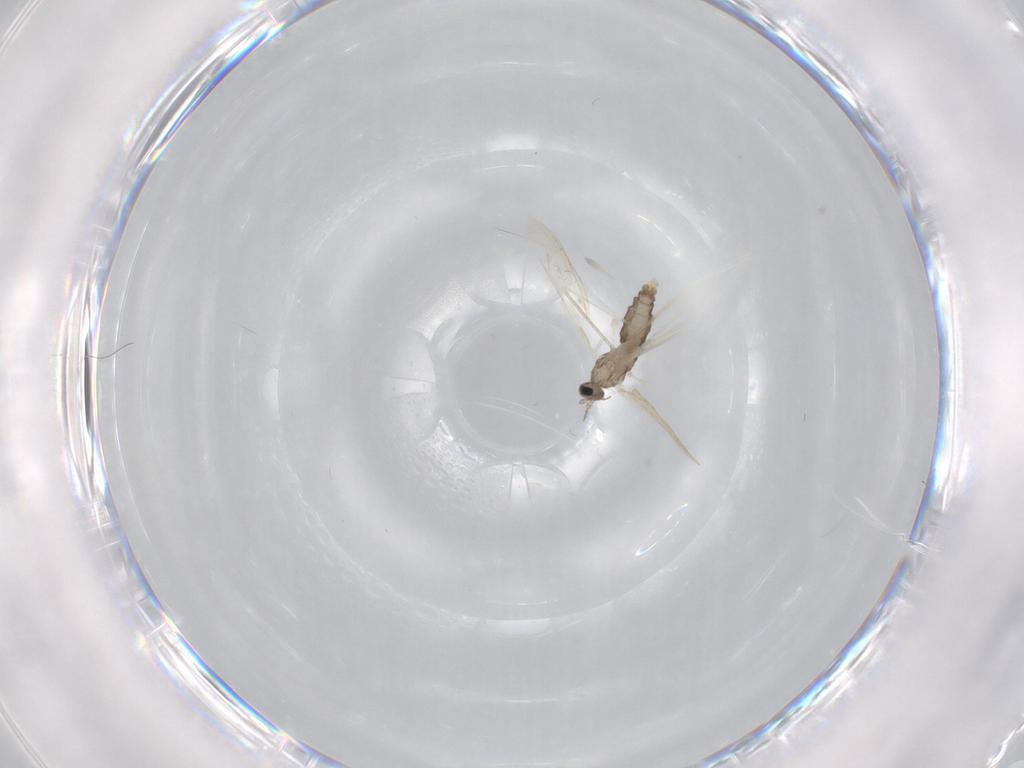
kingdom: Animalia
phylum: Arthropoda
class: Insecta
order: Diptera
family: Cecidomyiidae
